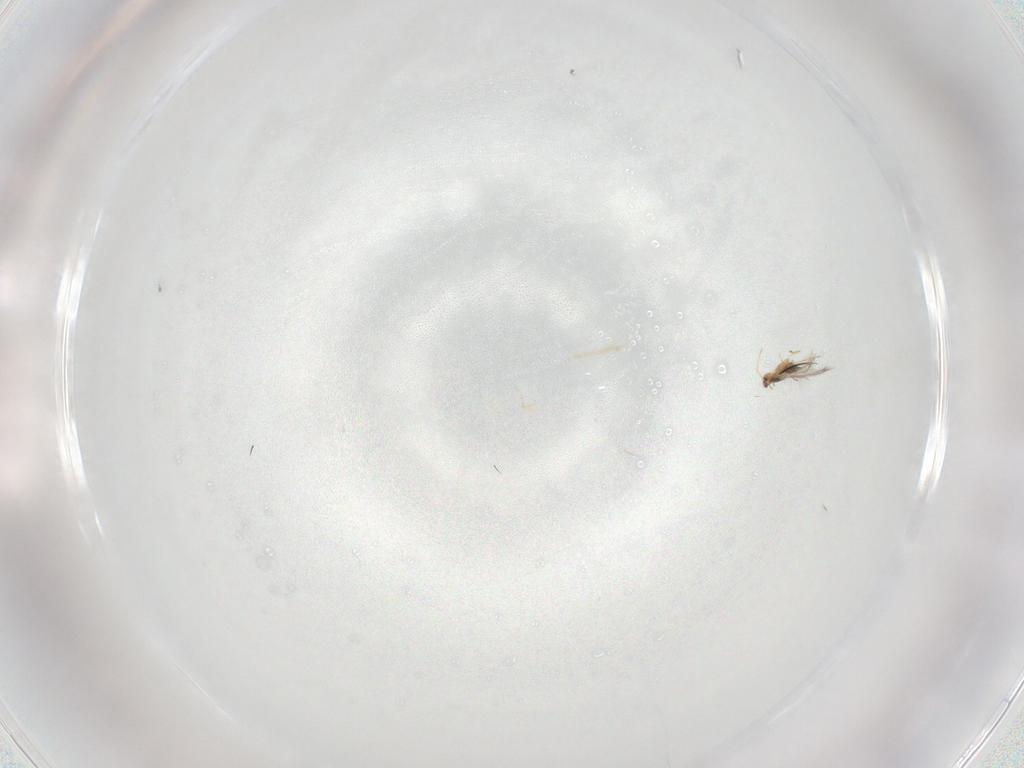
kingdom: Animalia
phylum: Arthropoda
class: Insecta
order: Hymenoptera
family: Mymaridae
